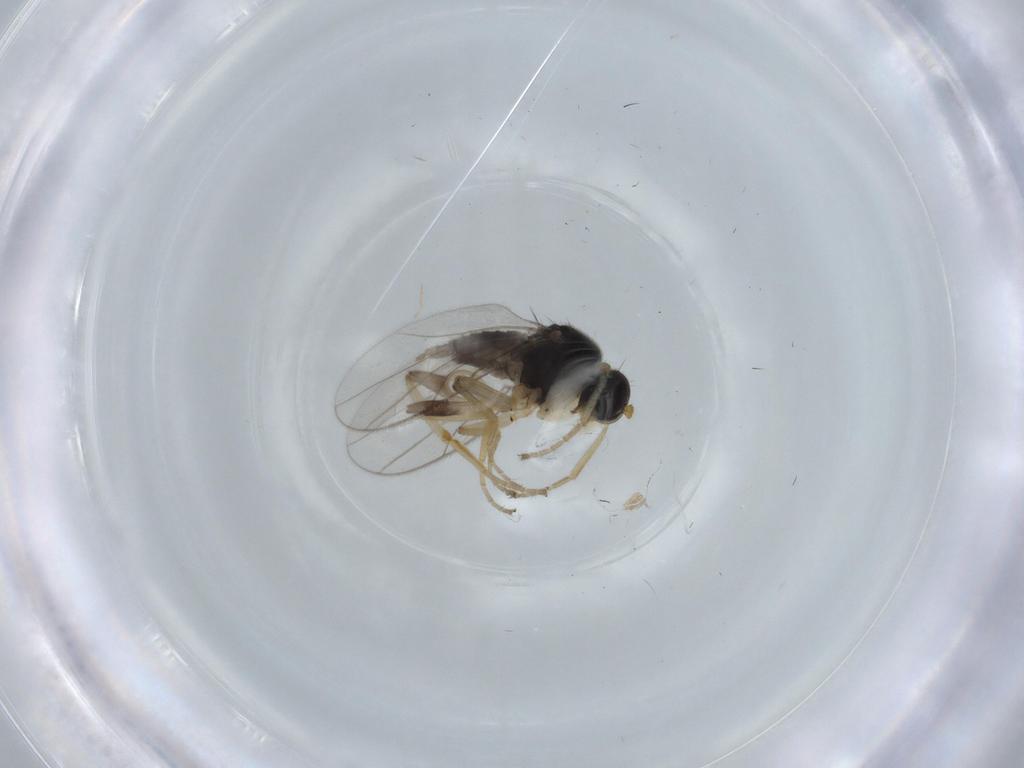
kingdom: Animalia
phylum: Arthropoda
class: Insecta
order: Diptera
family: Hybotidae
